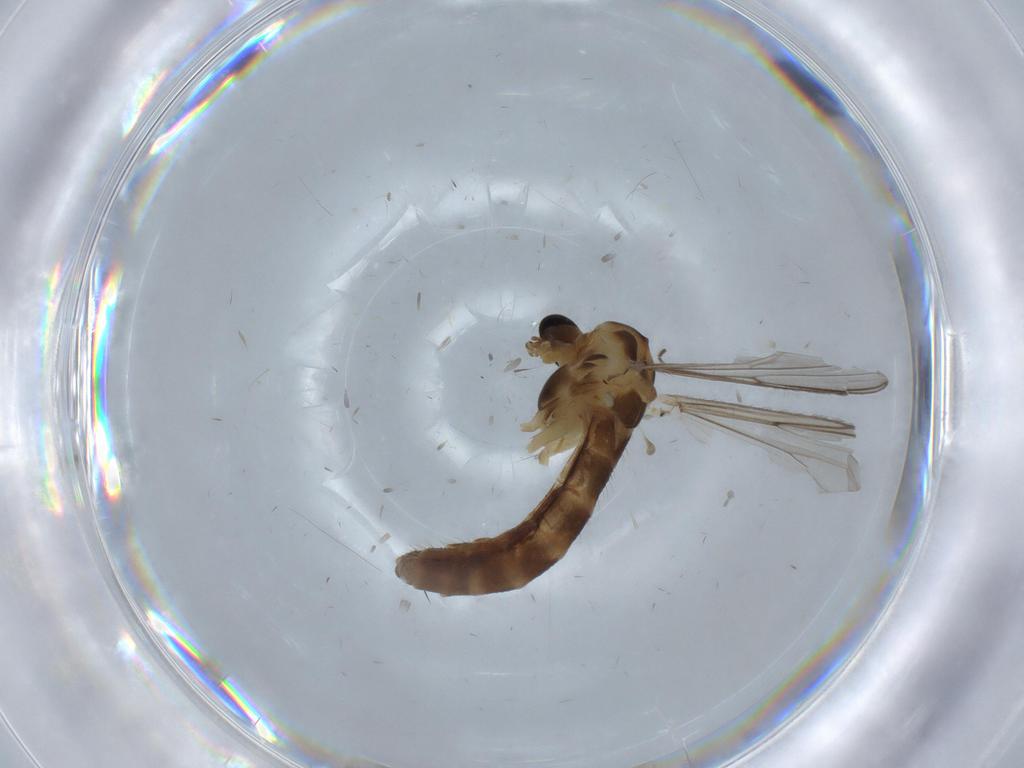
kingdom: Animalia
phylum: Arthropoda
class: Insecta
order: Diptera
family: Chironomidae
